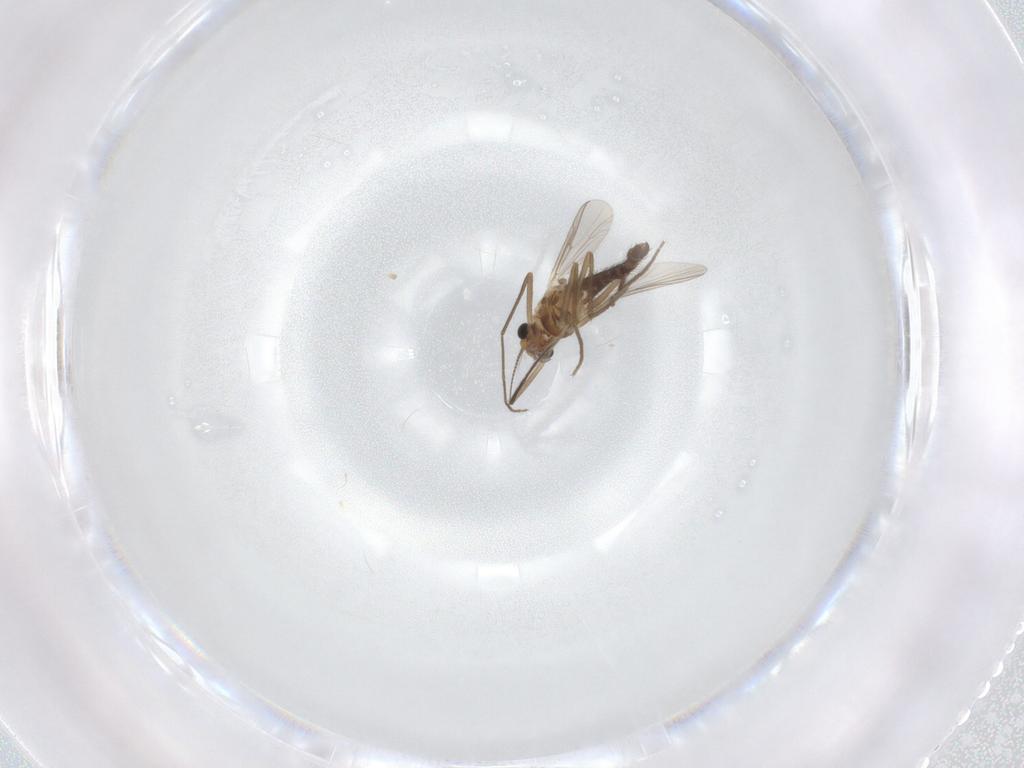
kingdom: Animalia
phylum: Arthropoda
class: Insecta
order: Diptera
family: Chironomidae
